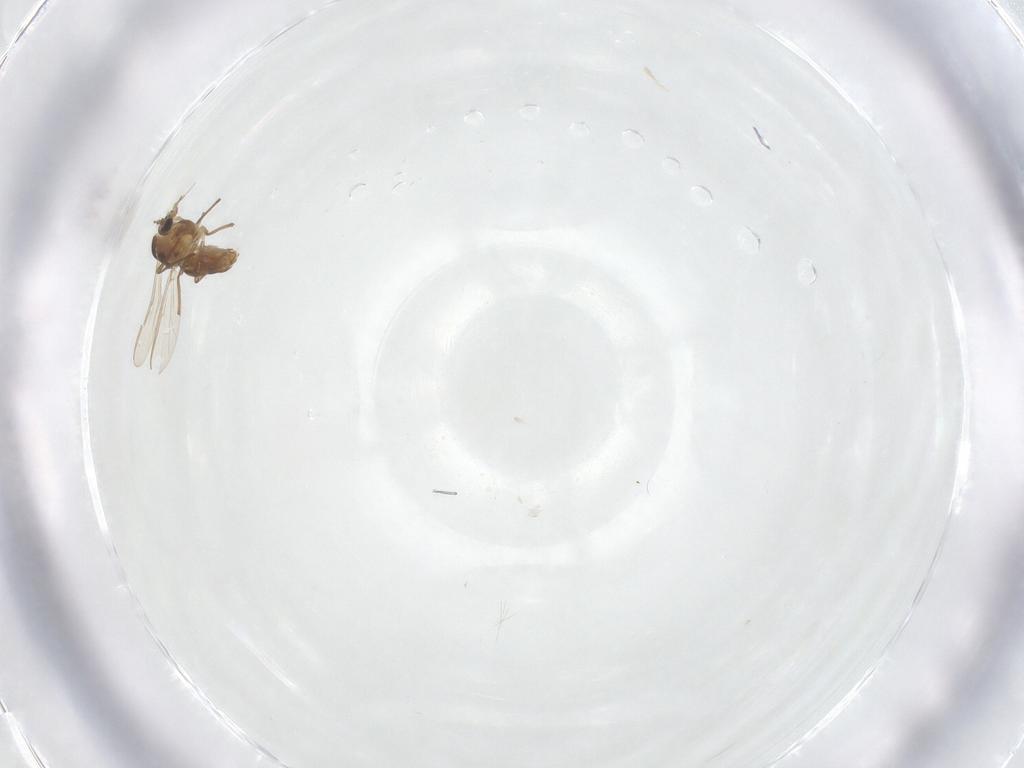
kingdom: Animalia
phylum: Arthropoda
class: Insecta
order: Diptera
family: Chironomidae
